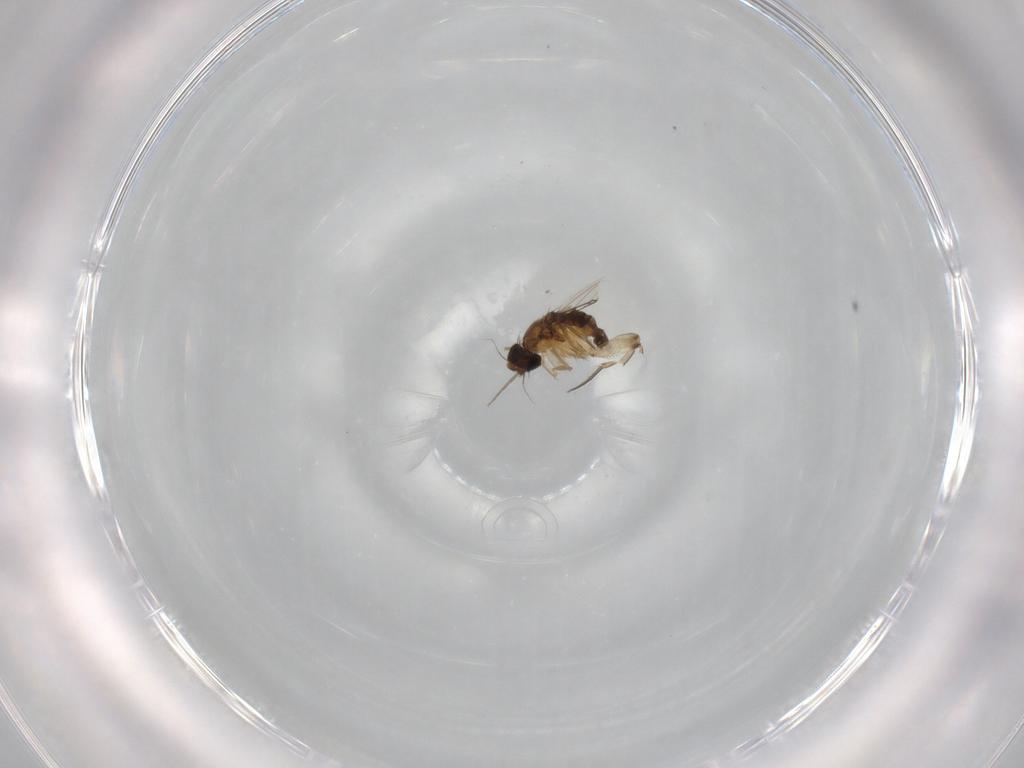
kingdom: Animalia
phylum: Arthropoda
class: Insecta
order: Diptera
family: Phoridae
